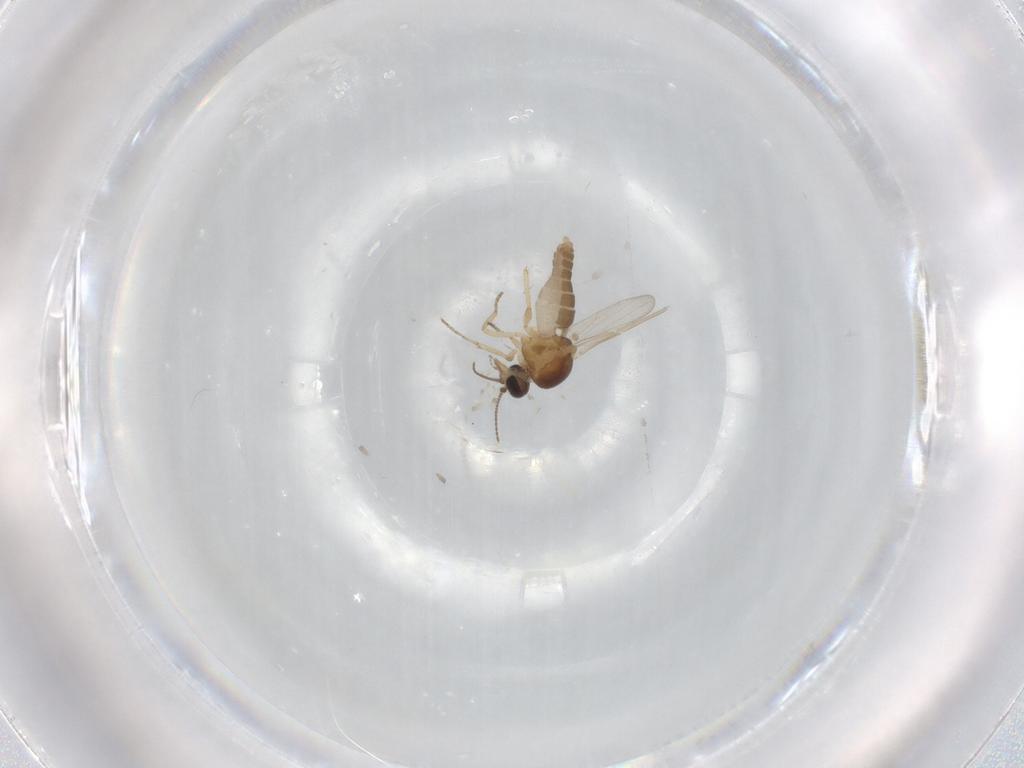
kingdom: Animalia
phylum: Arthropoda
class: Insecta
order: Diptera
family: Ceratopogonidae
